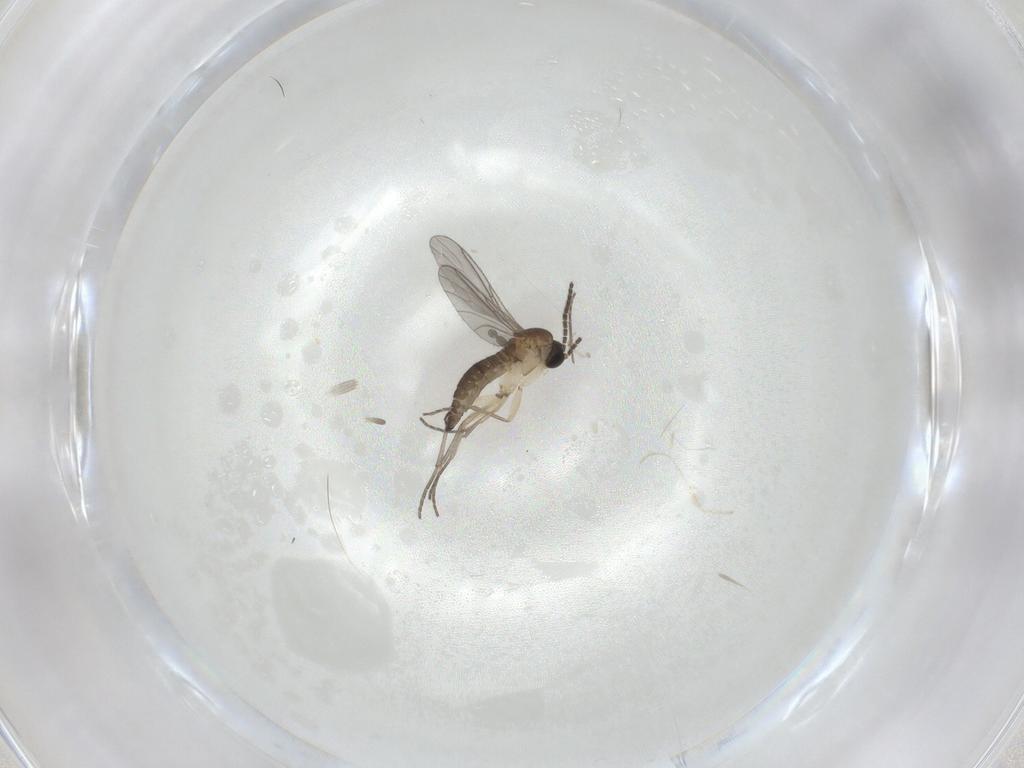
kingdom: Animalia
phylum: Arthropoda
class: Insecta
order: Diptera
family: Sciaridae
